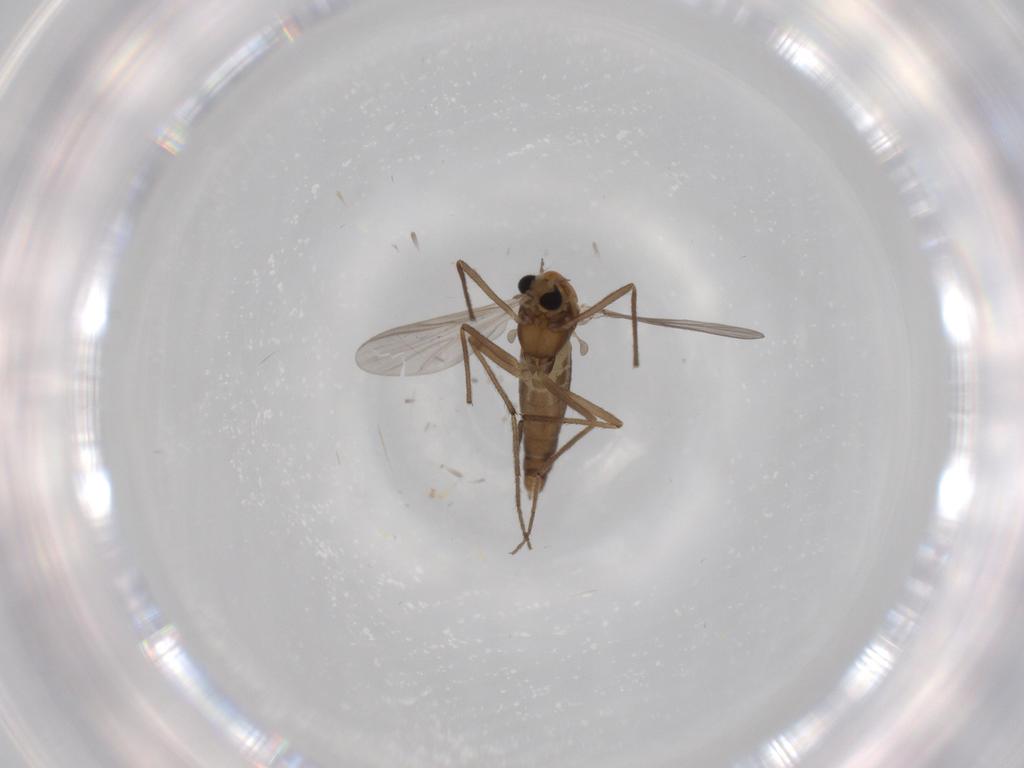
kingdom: Animalia
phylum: Arthropoda
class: Insecta
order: Diptera
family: Chironomidae
